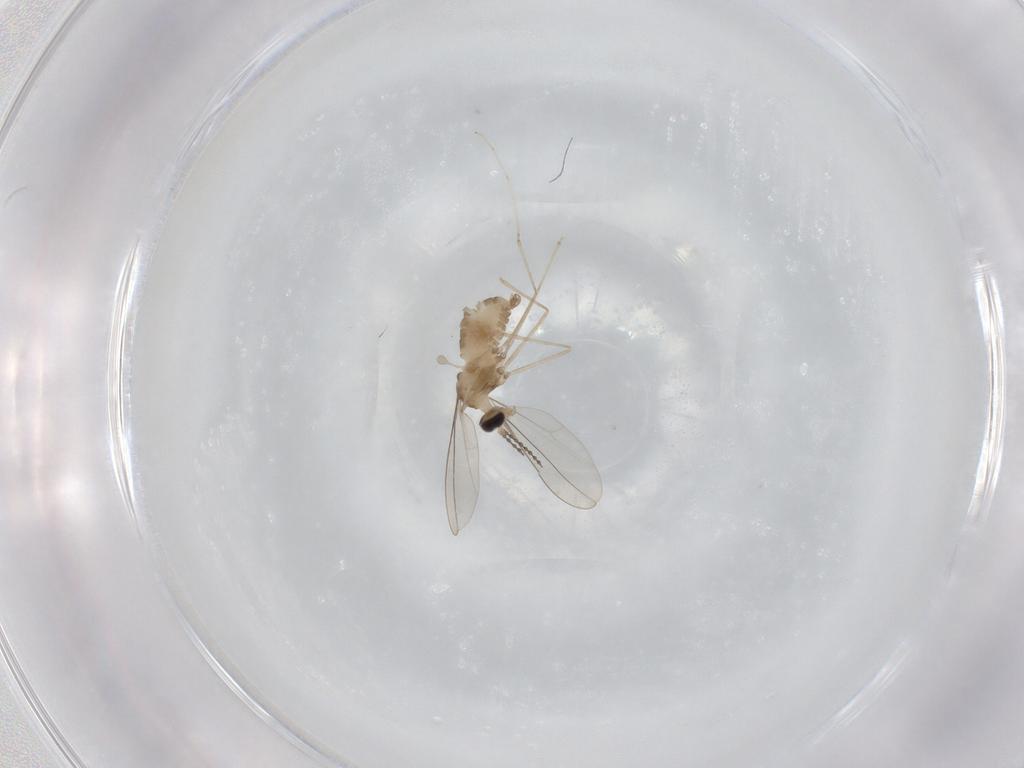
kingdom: Animalia
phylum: Arthropoda
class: Insecta
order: Diptera
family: Cecidomyiidae
